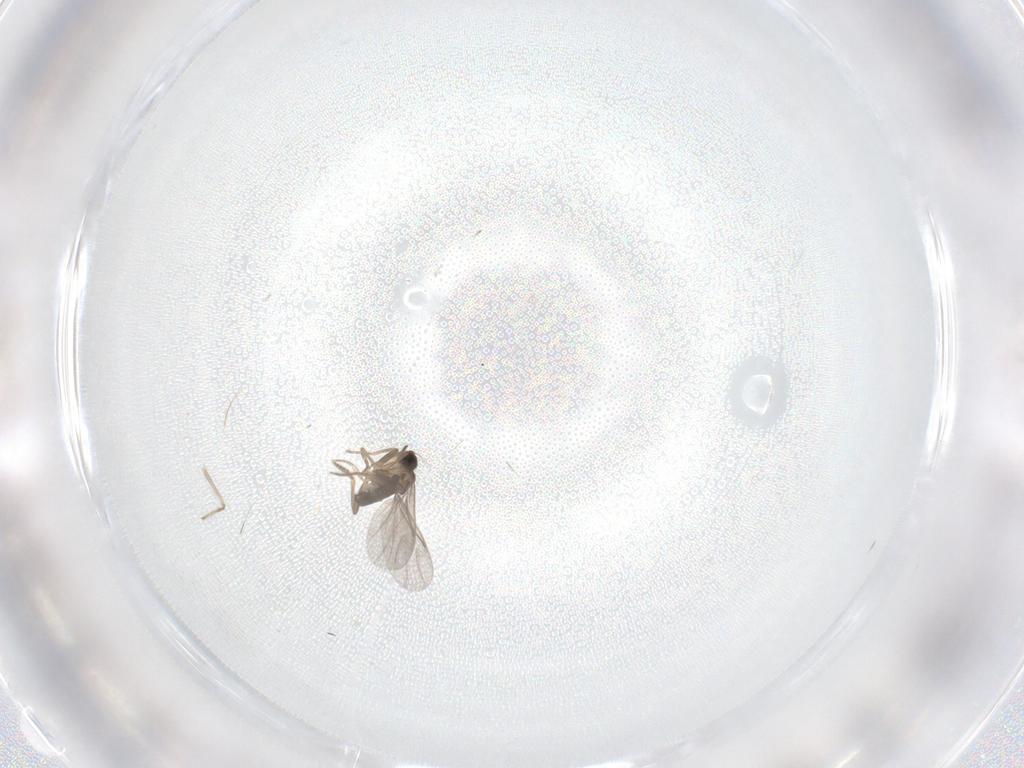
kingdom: Animalia
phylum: Arthropoda
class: Insecta
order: Diptera
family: Chironomidae
